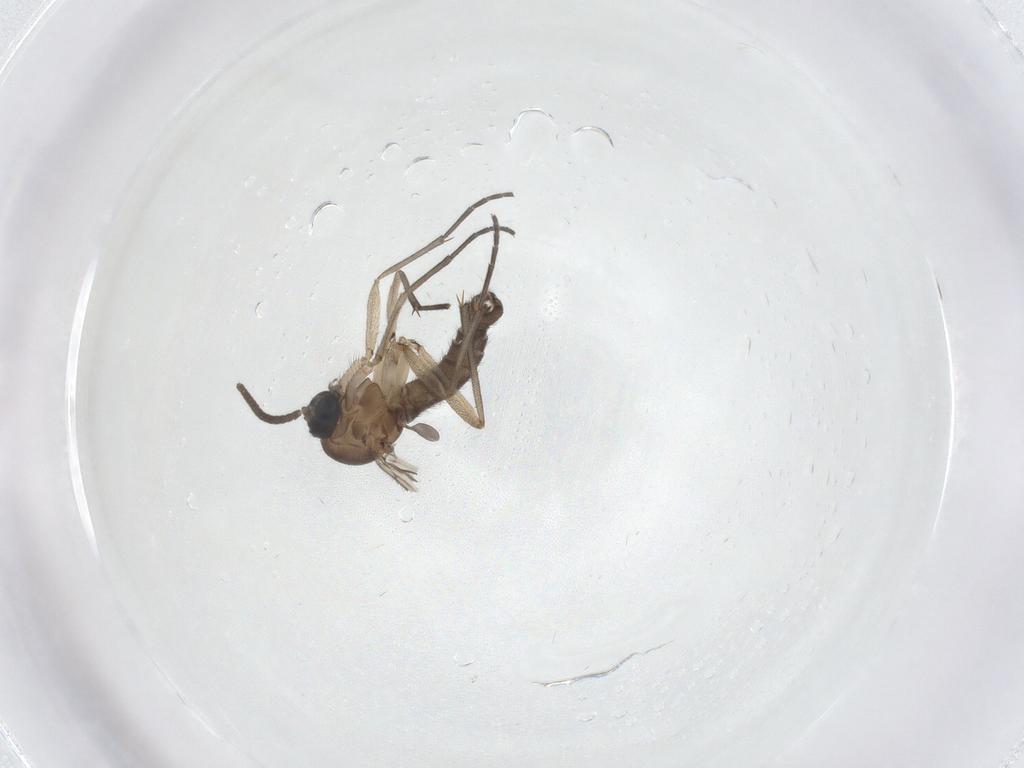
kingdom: Animalia
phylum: Arthropoda
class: Insecta
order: Diptera
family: Sciaridae
